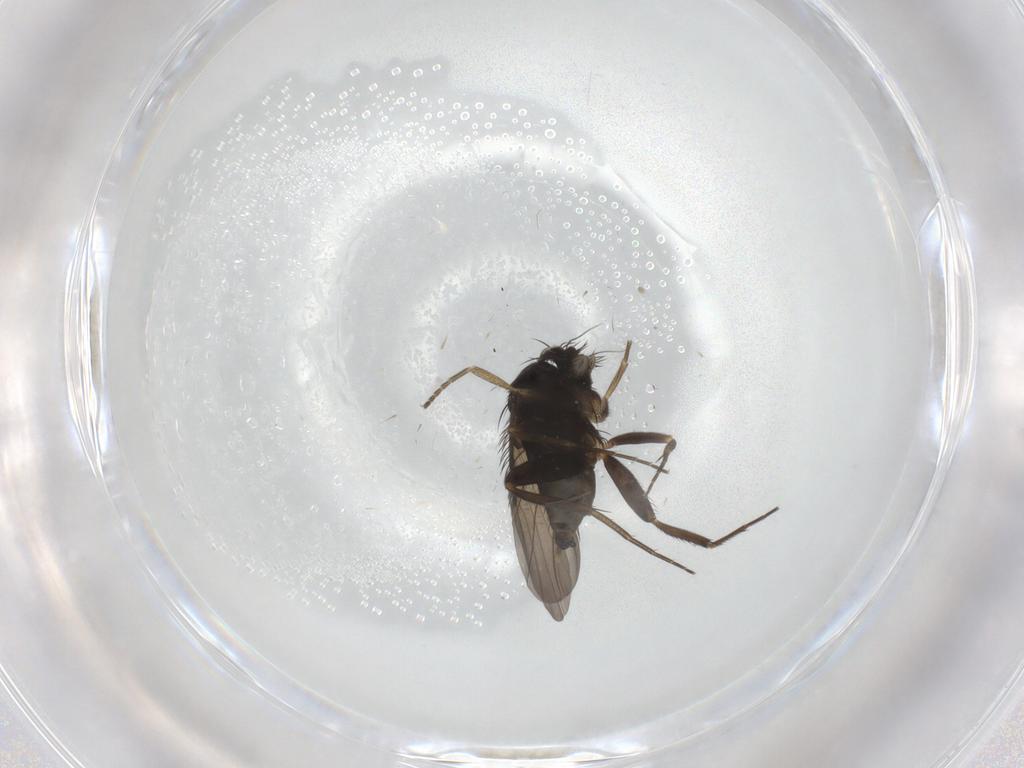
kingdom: Animalia
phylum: Arthropoda
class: Insecta
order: Diptera
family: Phoridae
